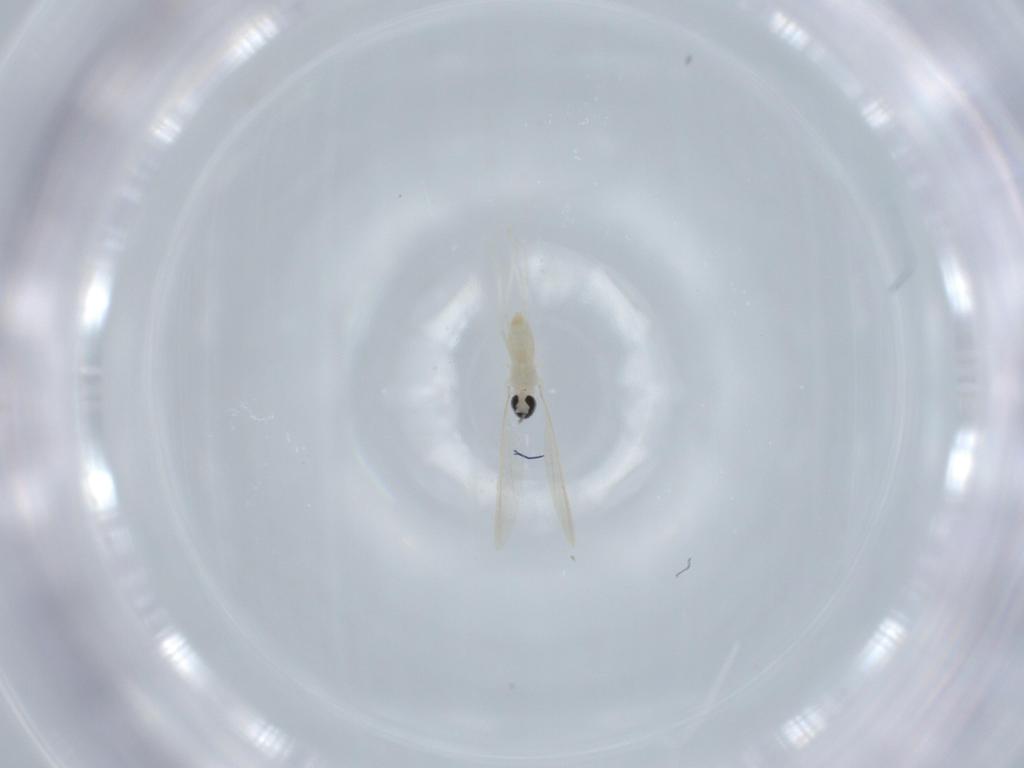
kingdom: Animalia
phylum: Arthropoda
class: Insecta
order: Diptera
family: Cecidomyiidae
